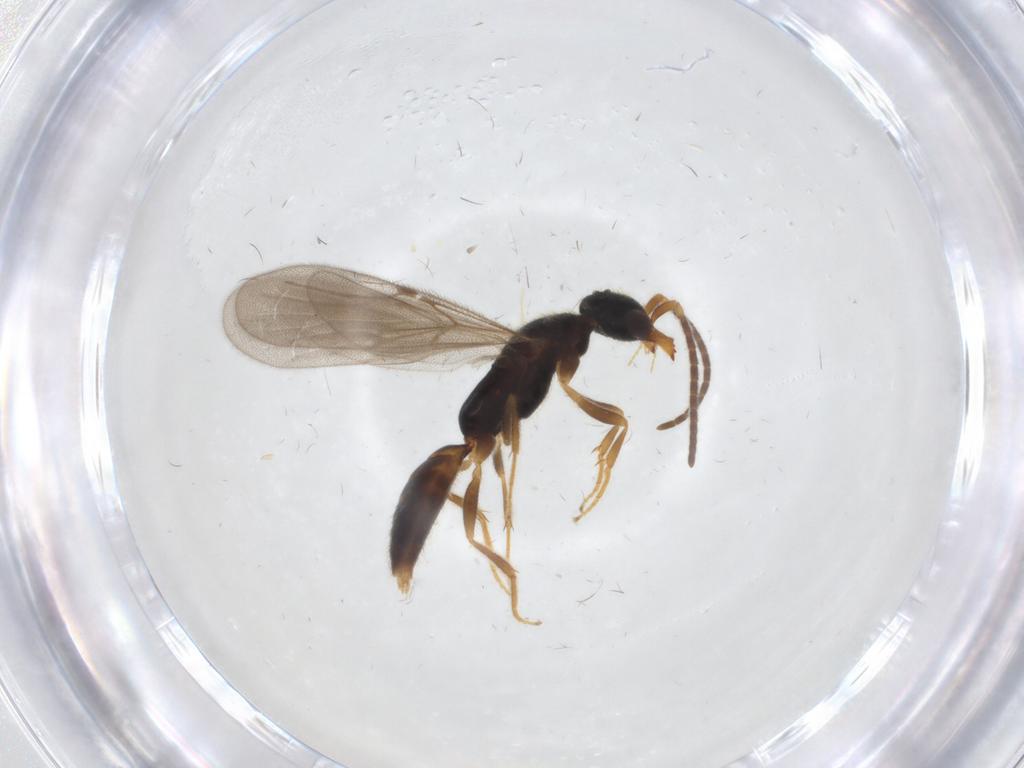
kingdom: Animalia
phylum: Arthropoda
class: Insecta
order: Hymenoptera
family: Bethylidae
